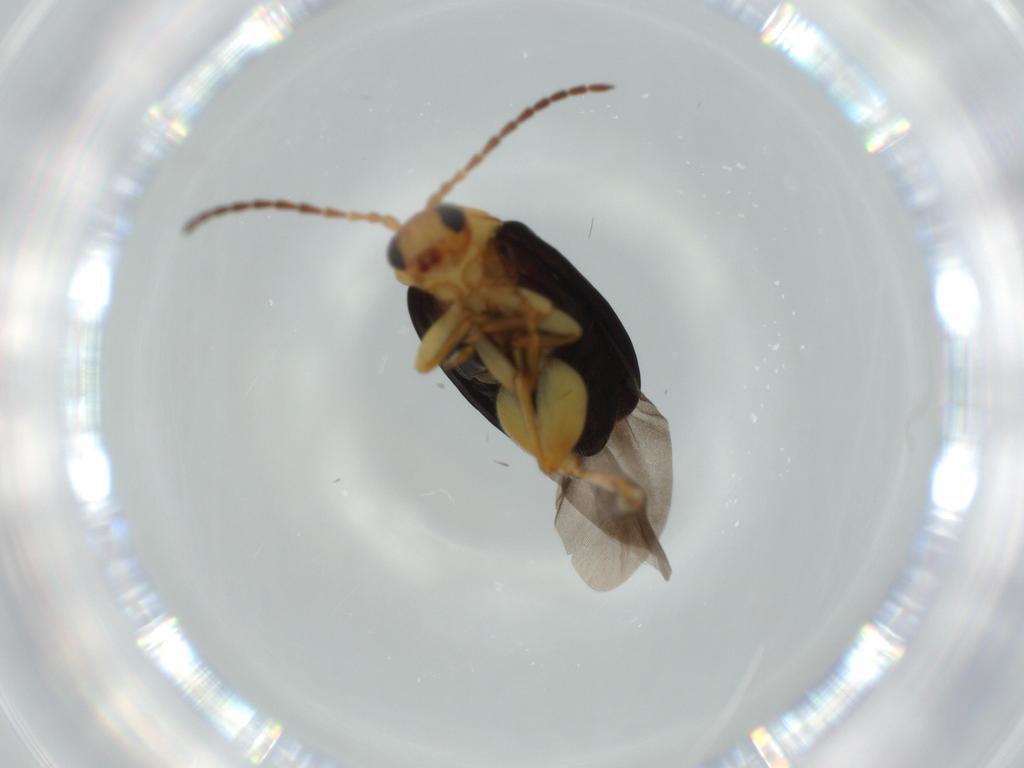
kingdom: Animalia
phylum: Arthropoda
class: Insecta
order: Coleoptera
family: Chrysomelidae
